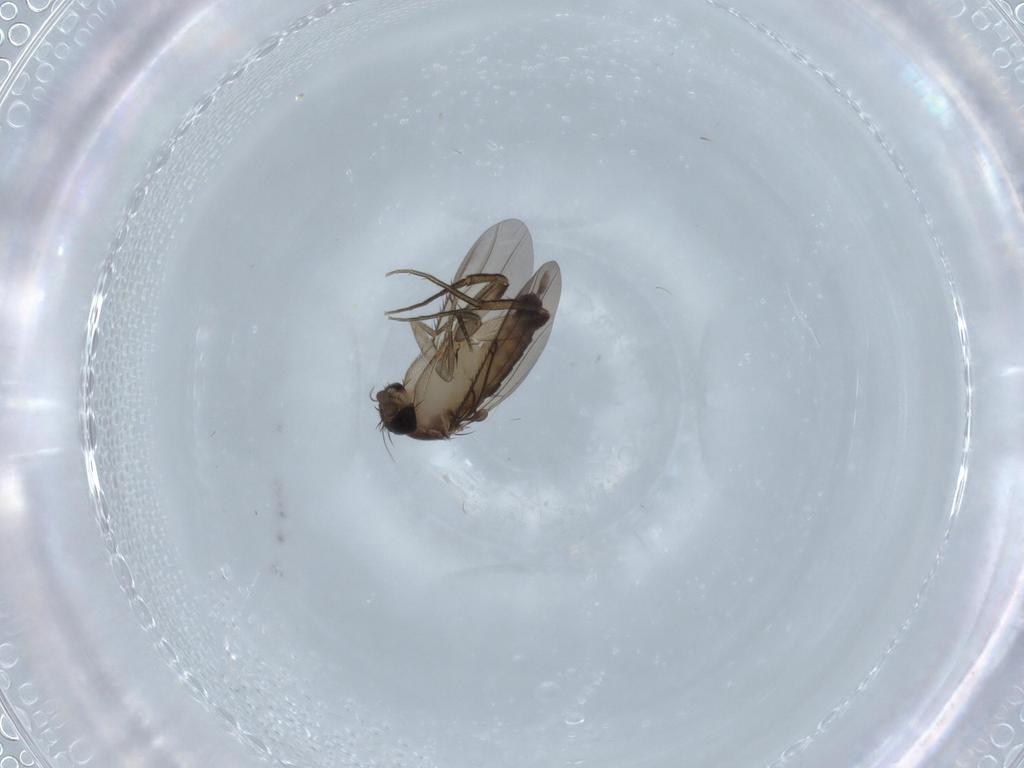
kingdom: Animalia
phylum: Arthropoda
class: Insecta
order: Diptera
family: Phoridae
